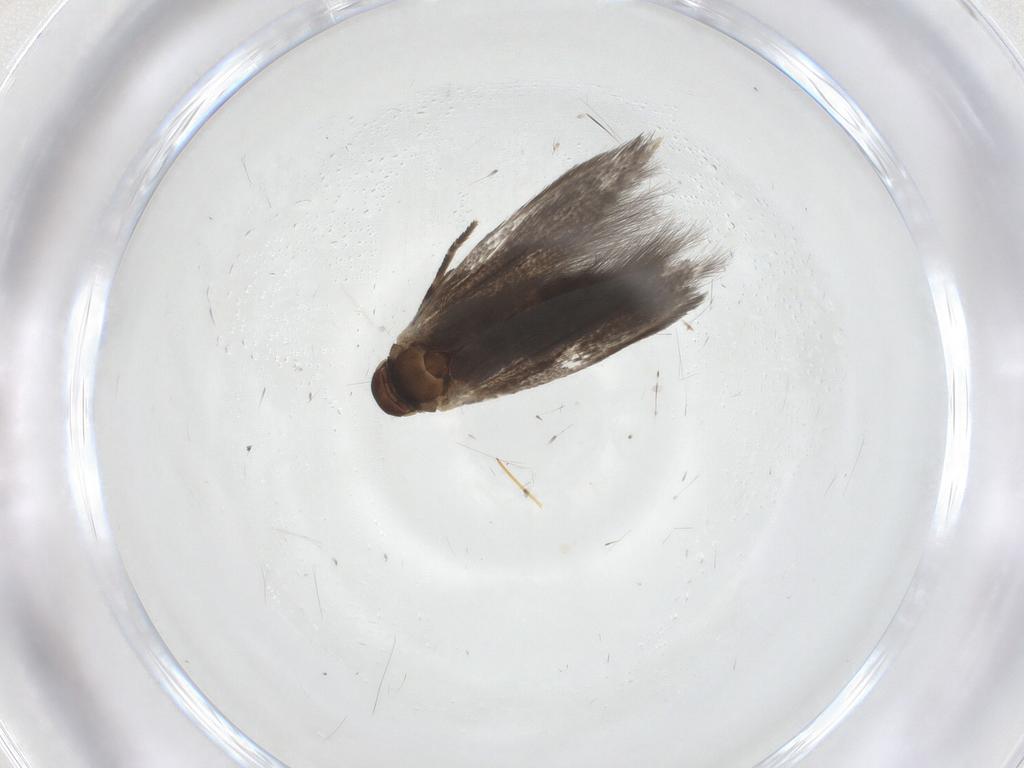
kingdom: Animalia
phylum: Arthropoda
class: Insecta
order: Lepidoptera
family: Elachistidae
